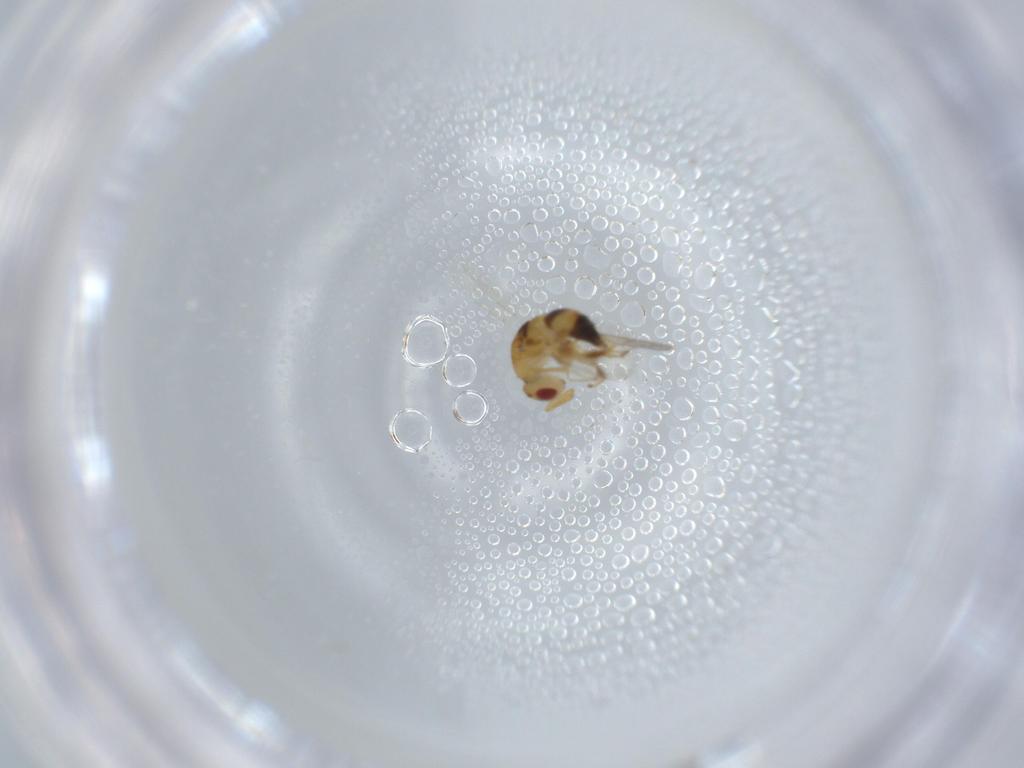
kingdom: Animalia
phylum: Arthropoda
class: Insecta
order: Hymenoptera
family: Torymidae
